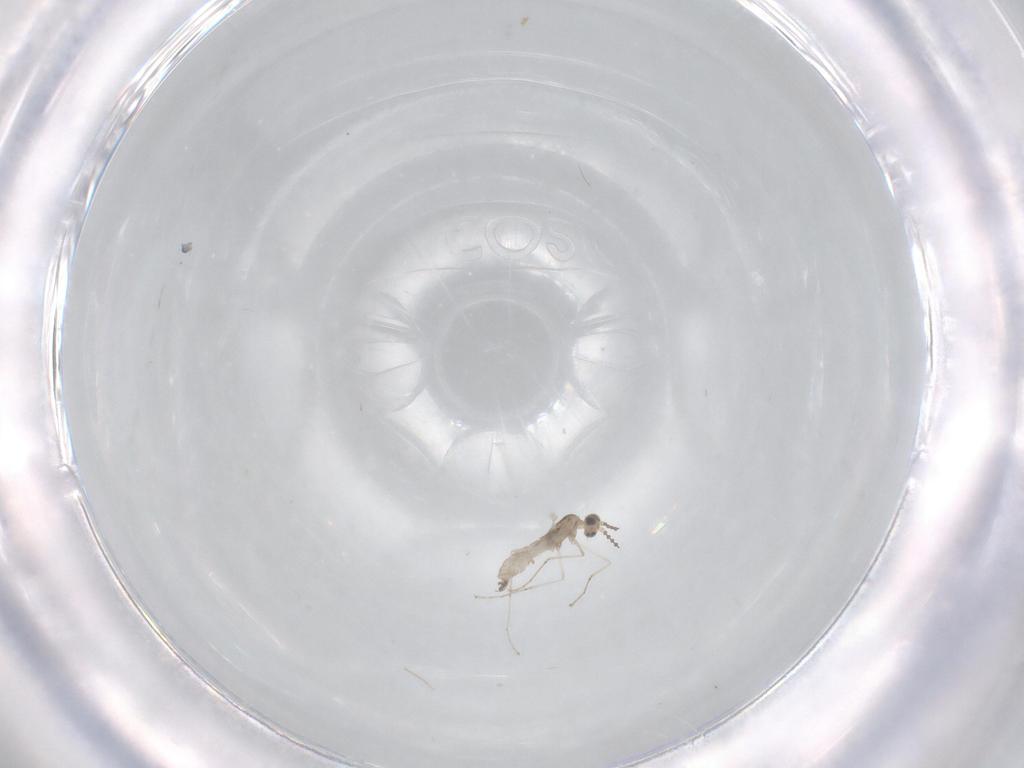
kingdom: Animalia
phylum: Arthropoda
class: Insecta
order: Diptera
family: Cecidomyiidae
